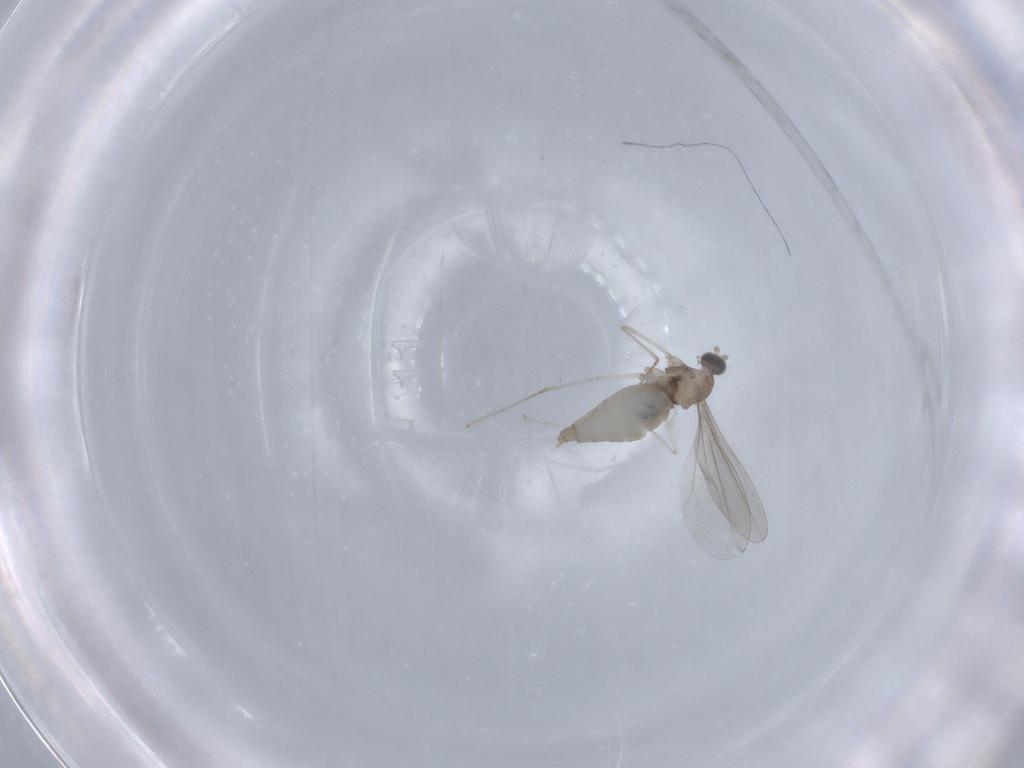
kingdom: Animalia
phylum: Arthropoda
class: Insecta
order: Diptera
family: Cecidomyiidae
